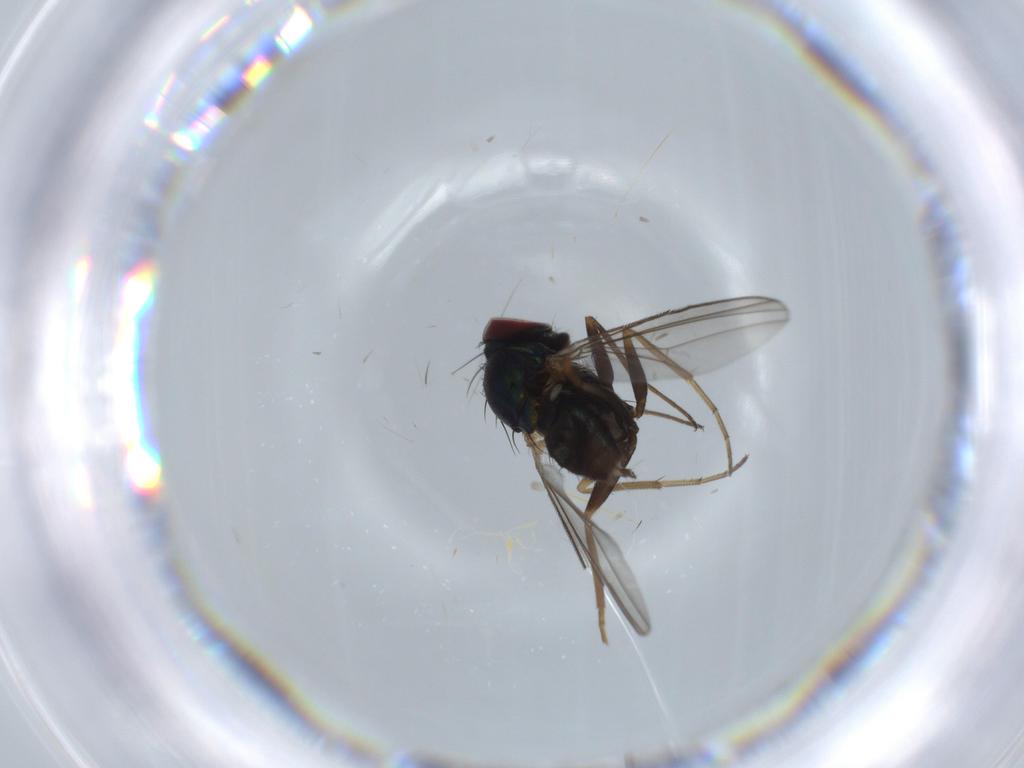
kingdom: Animalia
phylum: Arthropoda
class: Insecta
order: Diptera
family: Dolichopodidae
